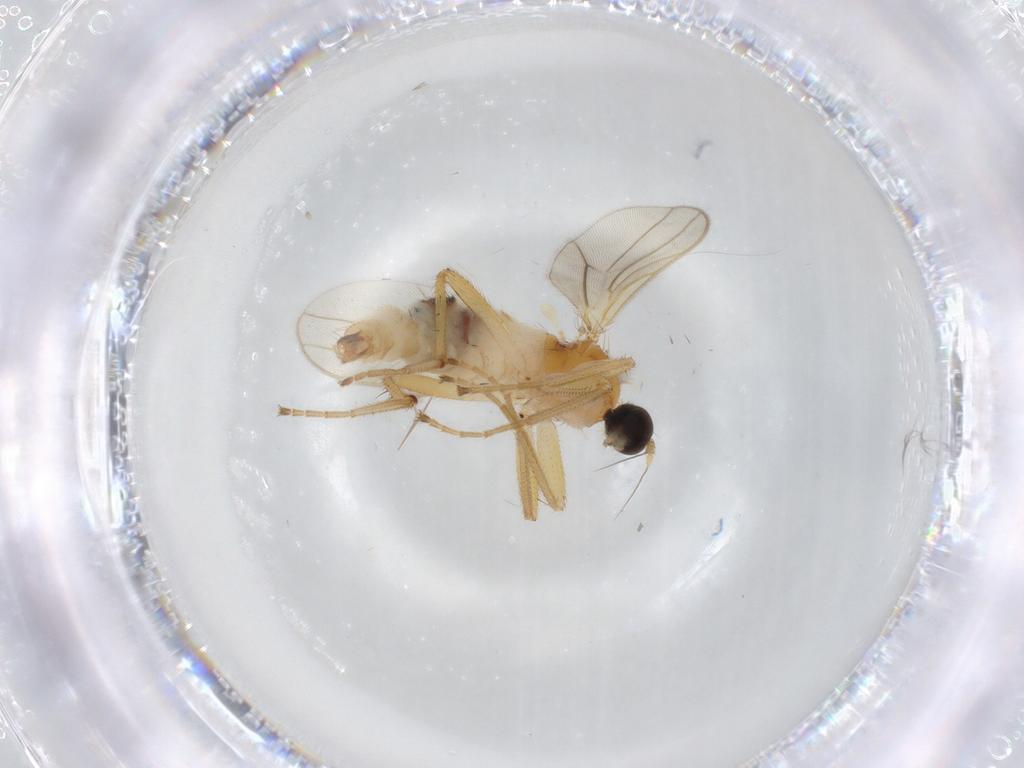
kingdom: Animalia
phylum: Arthropoda
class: Insecta
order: Diptera
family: Hybotidae
